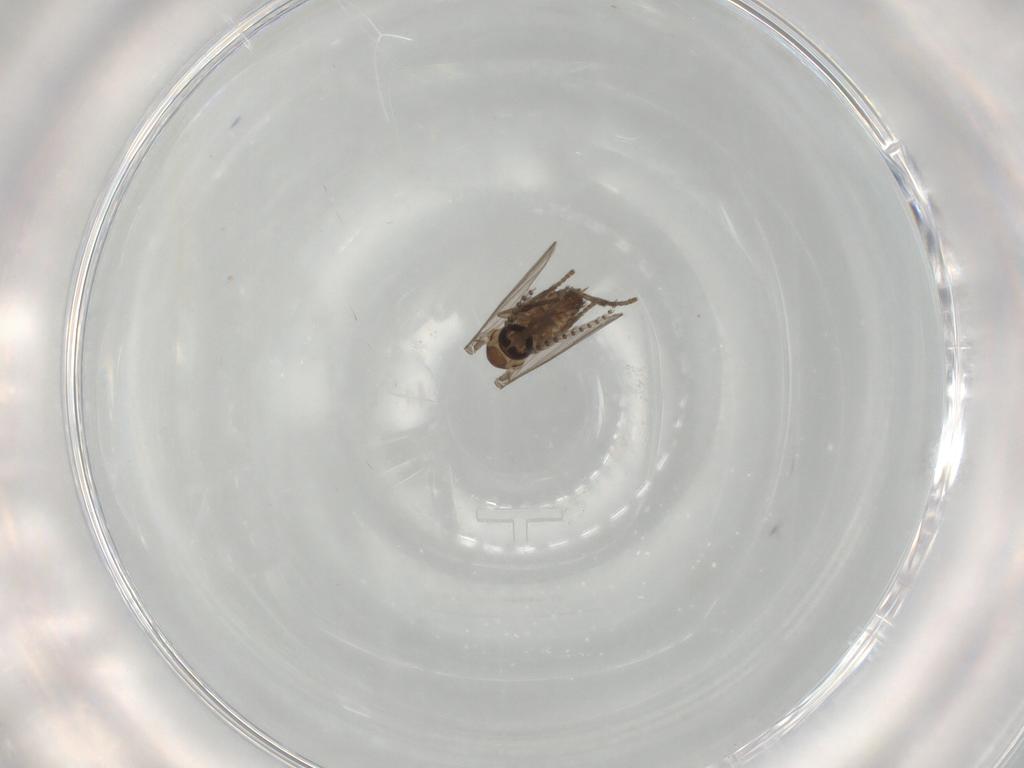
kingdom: Animalia
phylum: Arthropoda
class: Insecta
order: Diptera
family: Psychodidae
